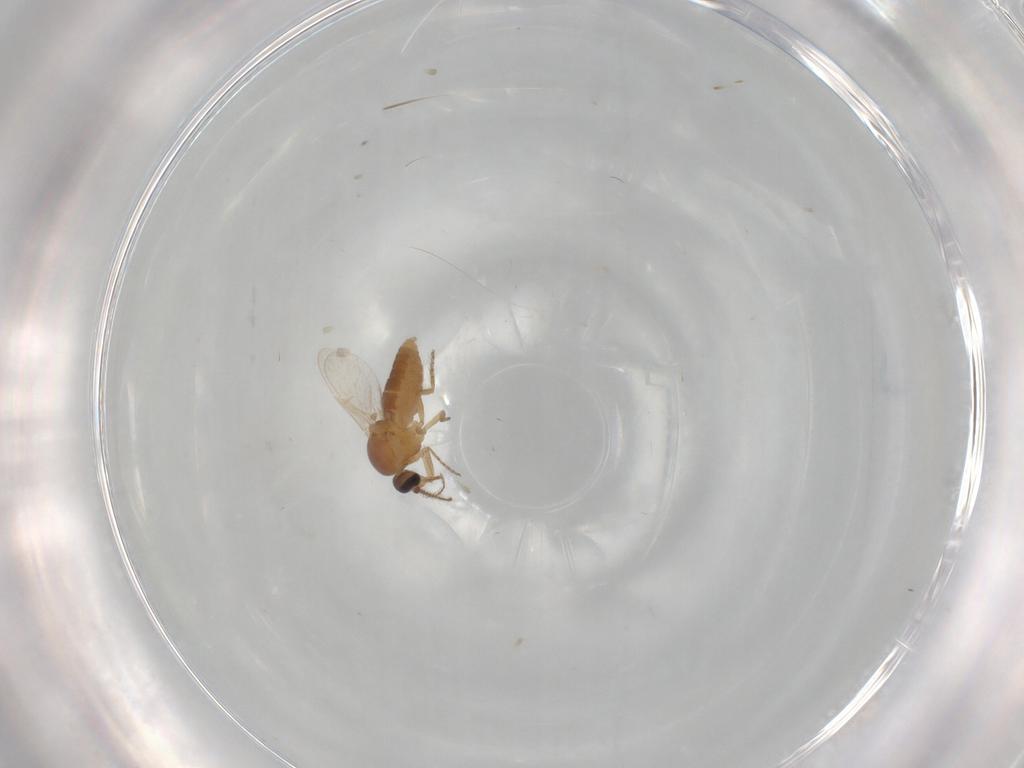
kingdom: Animalia
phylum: Arthropoda
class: Insecta
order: Diptera
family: Ceratopogonidae
